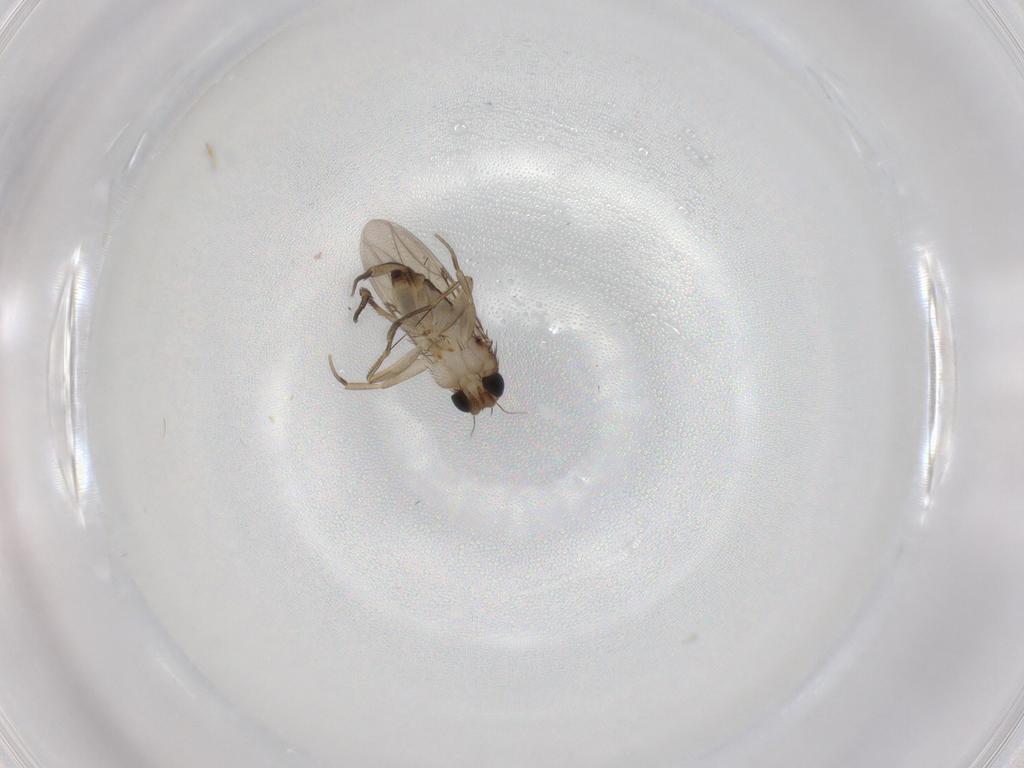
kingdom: Animalia
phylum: Arthropoda
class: Insecta
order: Diptera
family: Phoridae
